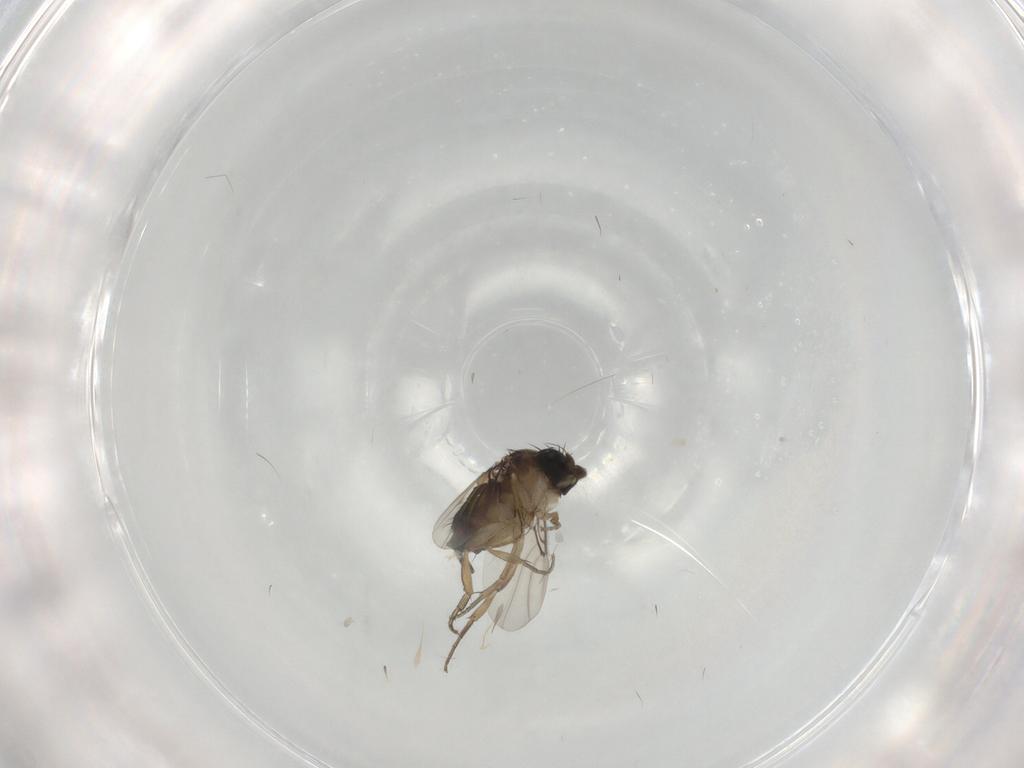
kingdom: Animalia
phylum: Arthropoda
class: Insecta
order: Diptera
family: Phoridae
